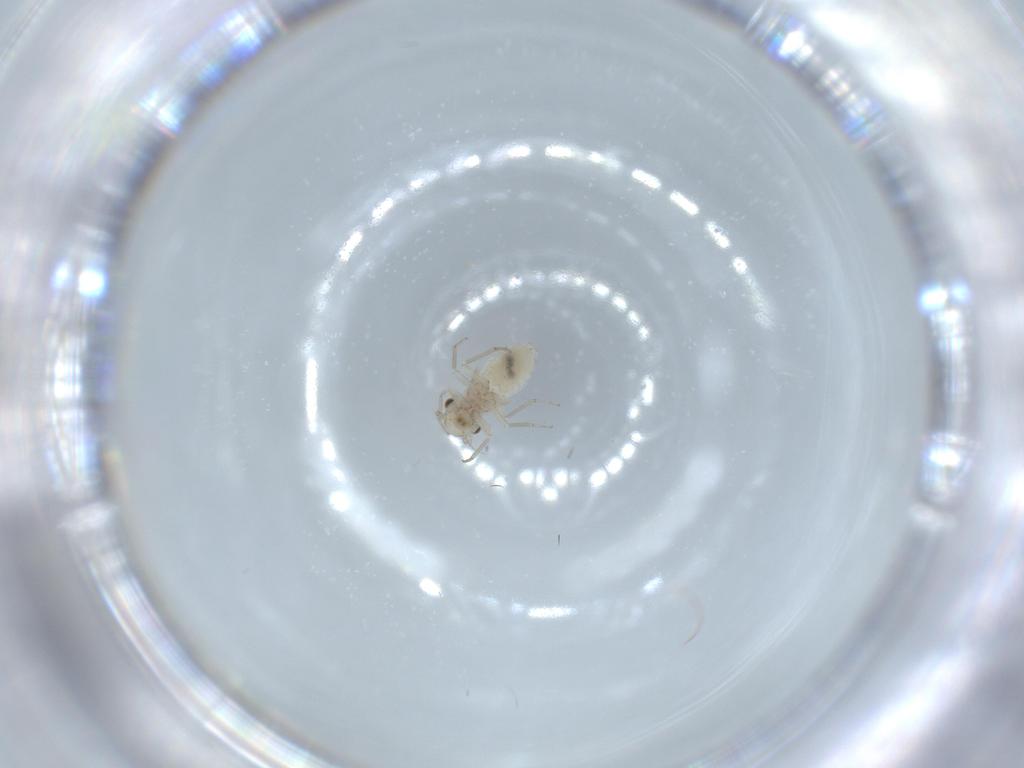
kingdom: Animalia
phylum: Arthropoda
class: Insecta
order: Psocodea
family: Lachesillidae
